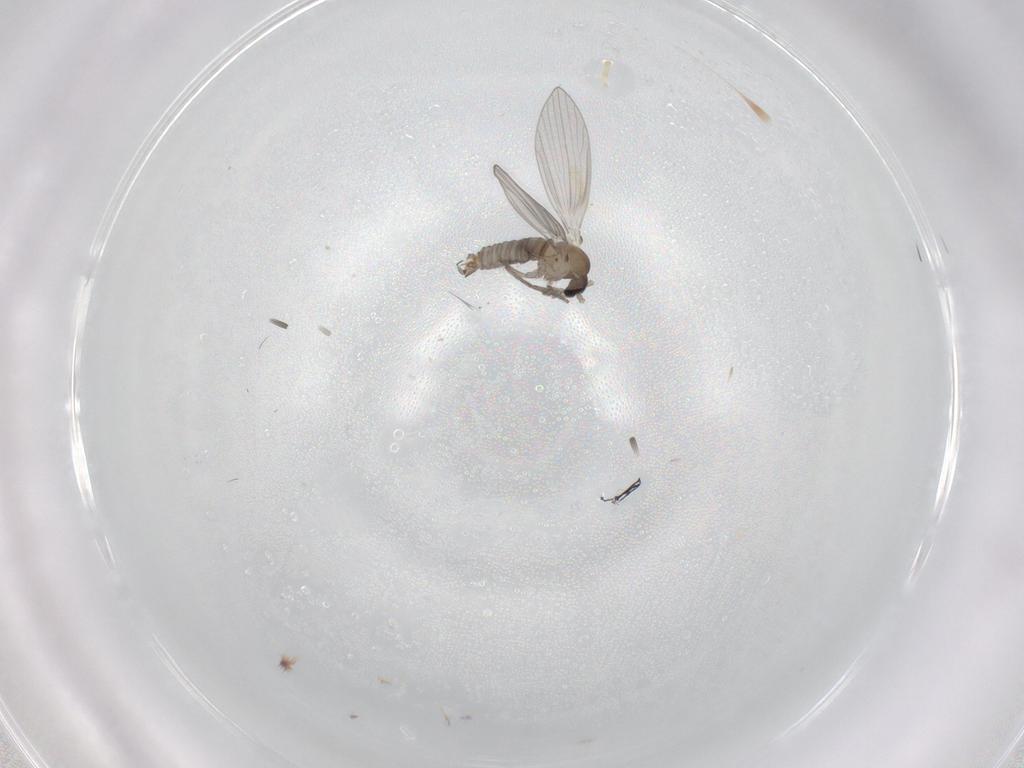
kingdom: Animalia
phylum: Arthropoda
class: Insecta
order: Diptera
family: Psychodidae
